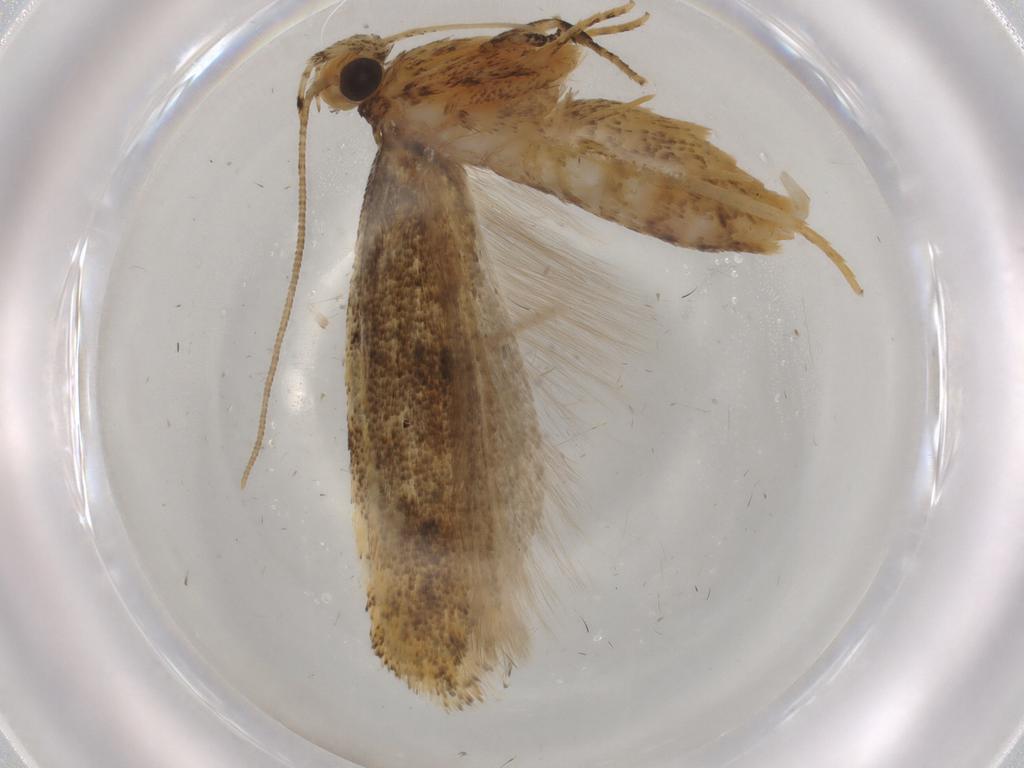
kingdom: Animalia
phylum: Arthropoda
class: Insecta
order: Lepidoptera
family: Gelechiidae
